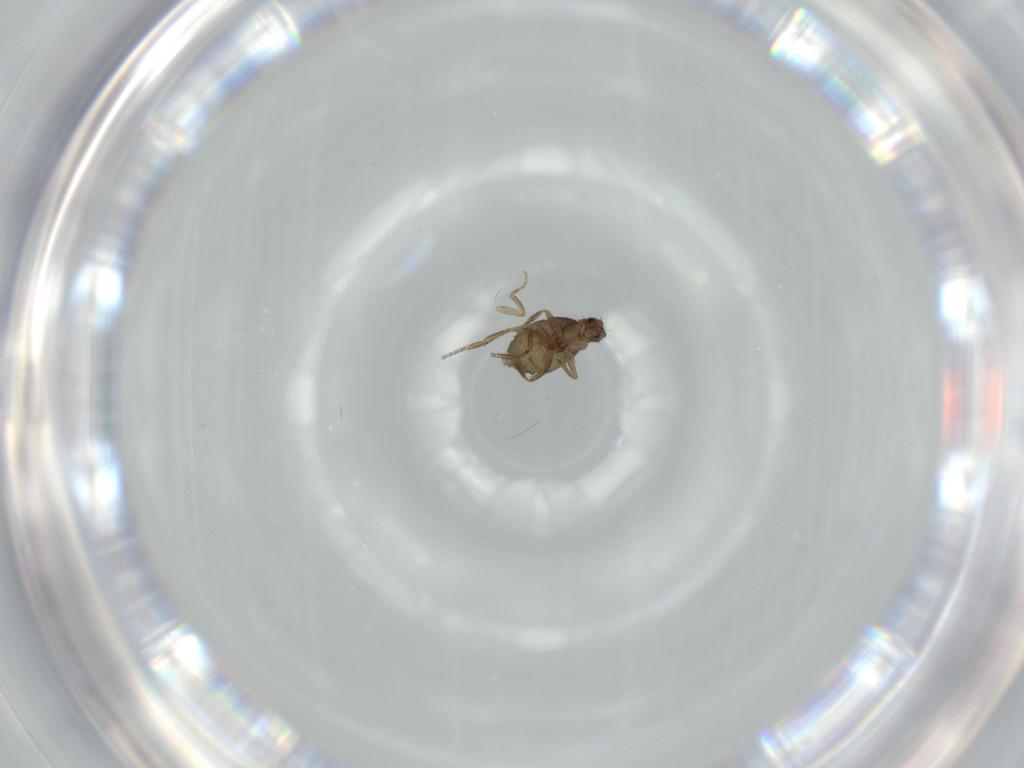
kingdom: Animalia
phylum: Arthropoda
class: Insecta
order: Diptera
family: Phoridae
